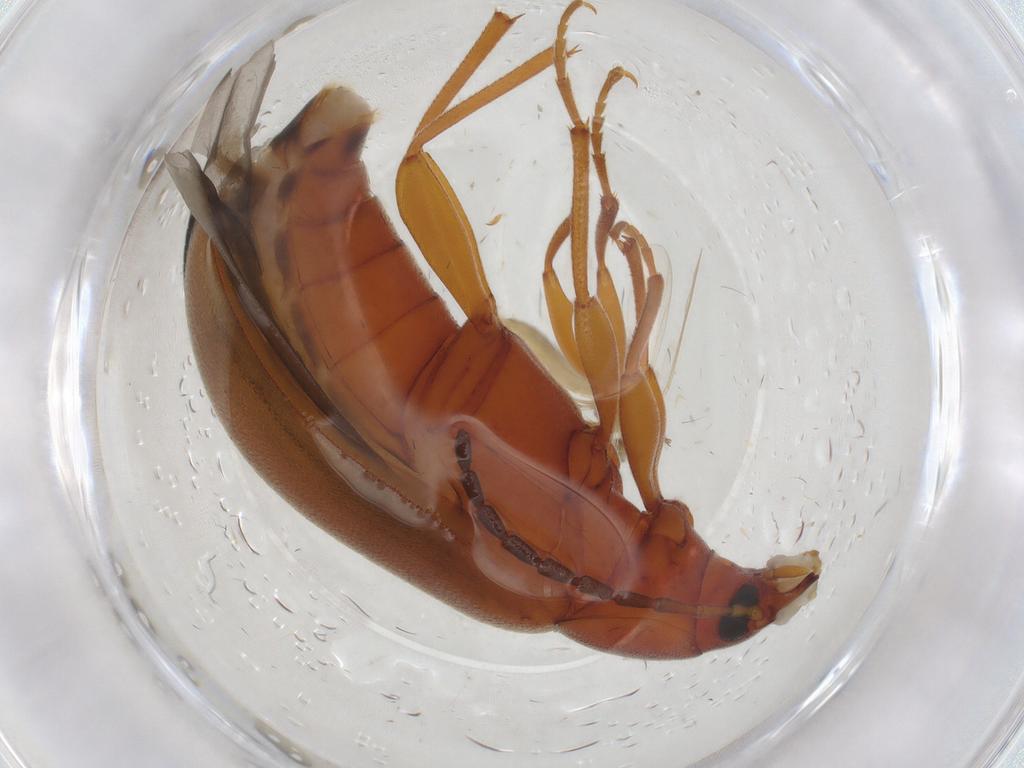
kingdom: Animalia
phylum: Arthropoda
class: Insecta
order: Coleoptera
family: Tenebrionidae
